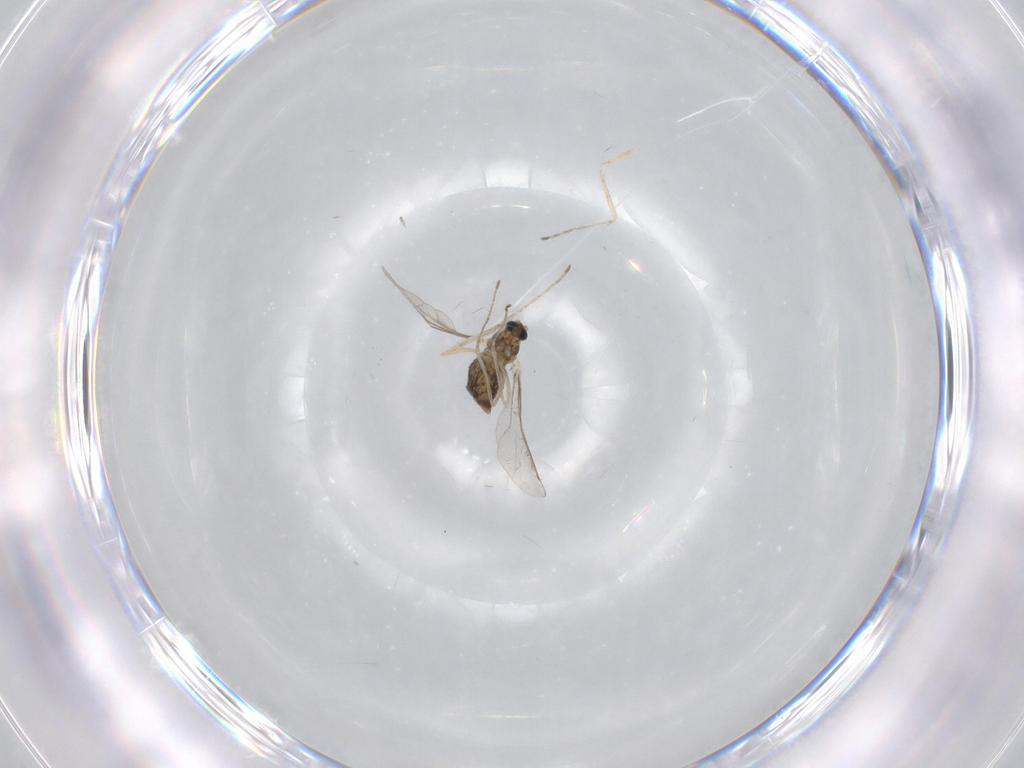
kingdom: Animalia
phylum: Arthropoda
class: Insecta
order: Diptera
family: Cecidomyiidae
